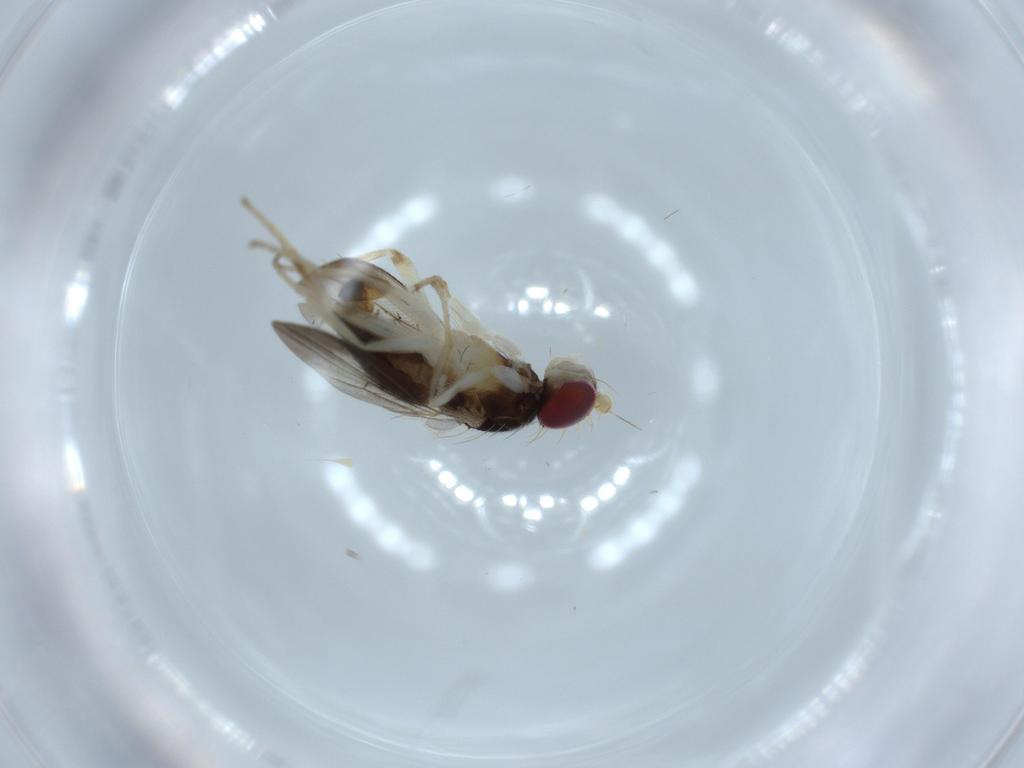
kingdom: Animalia
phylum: Arthropoda
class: Insecta
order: Diptera
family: Clusiidae
